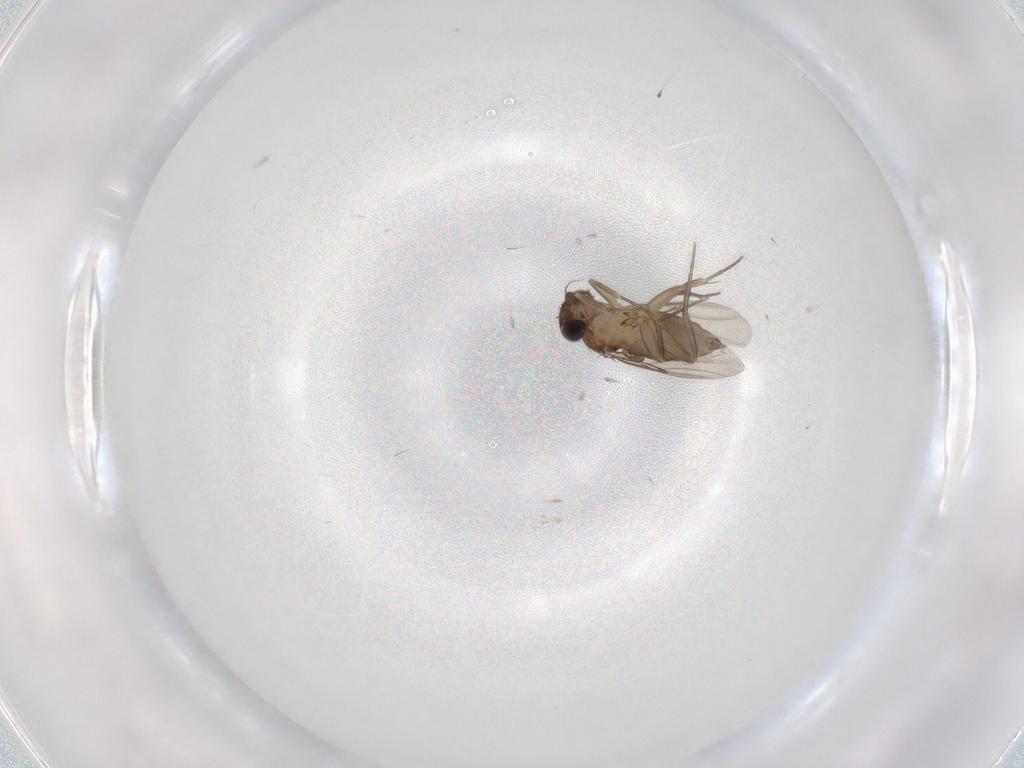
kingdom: Animalia
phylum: Arthropoda
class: Insecta
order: Diptera
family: Phoridae
